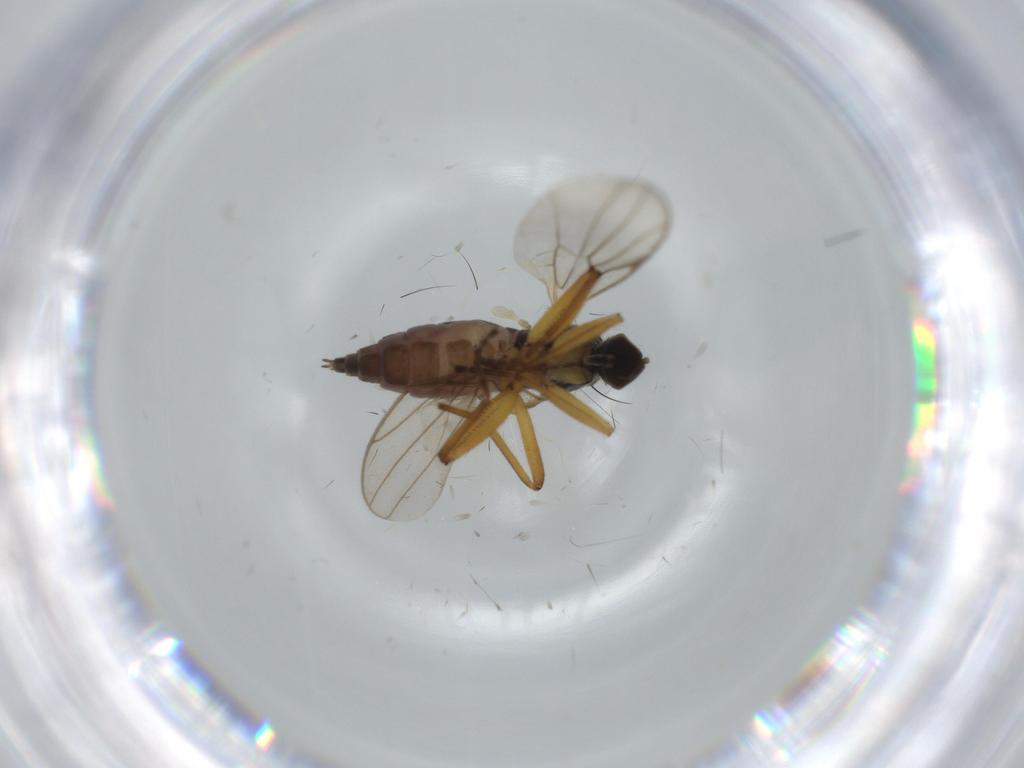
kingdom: Animalia
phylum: Arthropoda
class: Insecta
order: Diptera
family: Hybotidae
